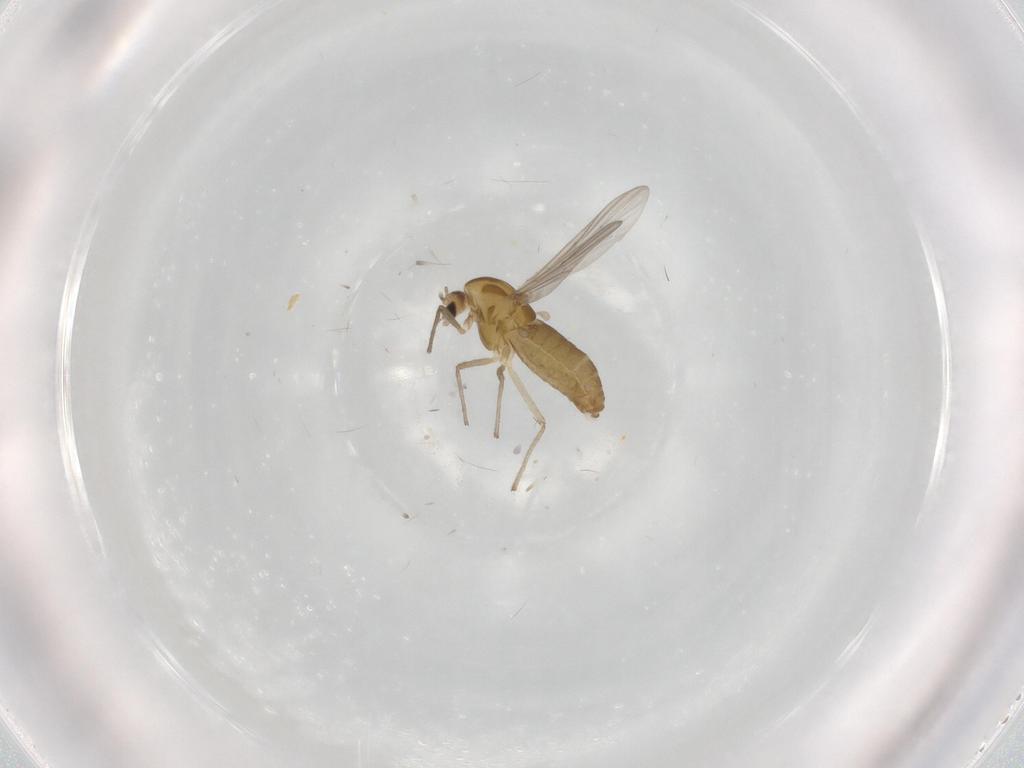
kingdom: Animalia
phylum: Arthropoda
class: Insecta
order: Diptera
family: Chironomidae
